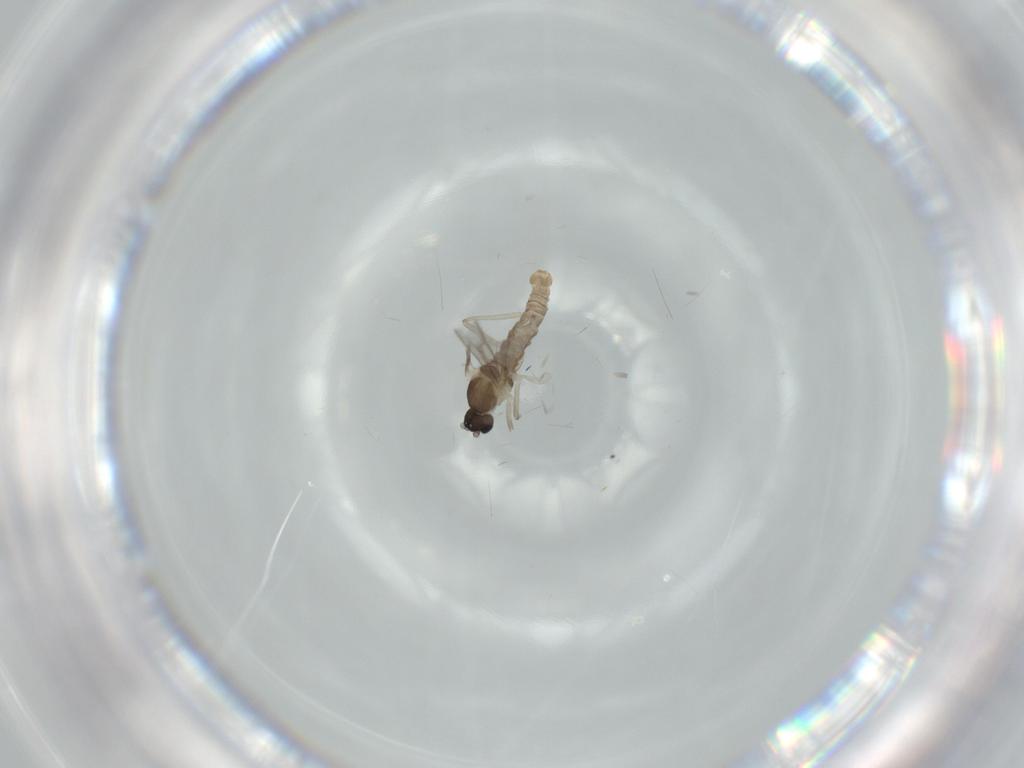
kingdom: Animalia
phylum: Arthropoda
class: Insecta
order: Diptera
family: Cecidomyiidae
